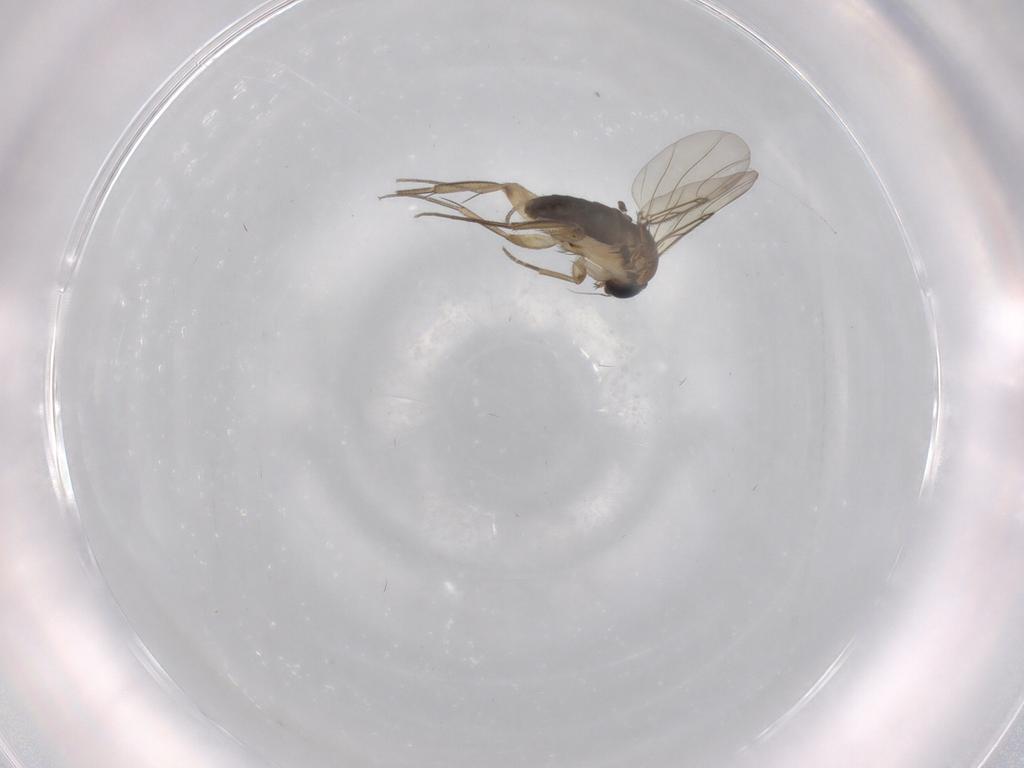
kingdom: Animalia
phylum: Arthropoda
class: Insecta
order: Diptera
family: Phoridae
